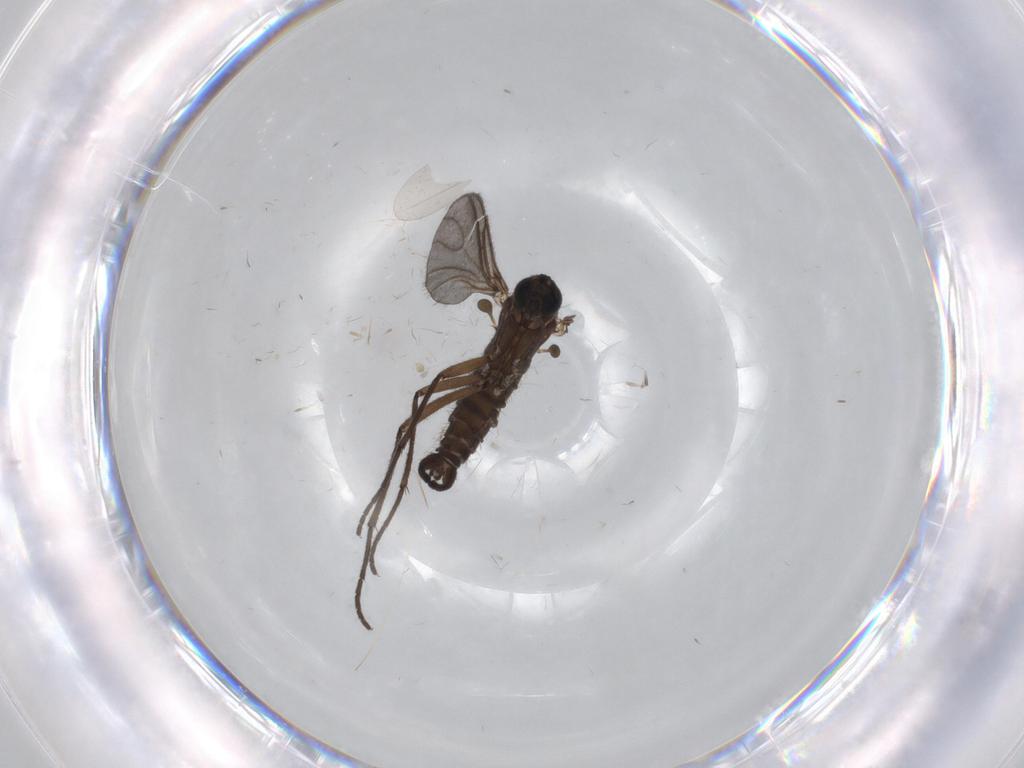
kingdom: Animalia
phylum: Arthropoda
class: Insecta
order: Diptera
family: Sciaridae
